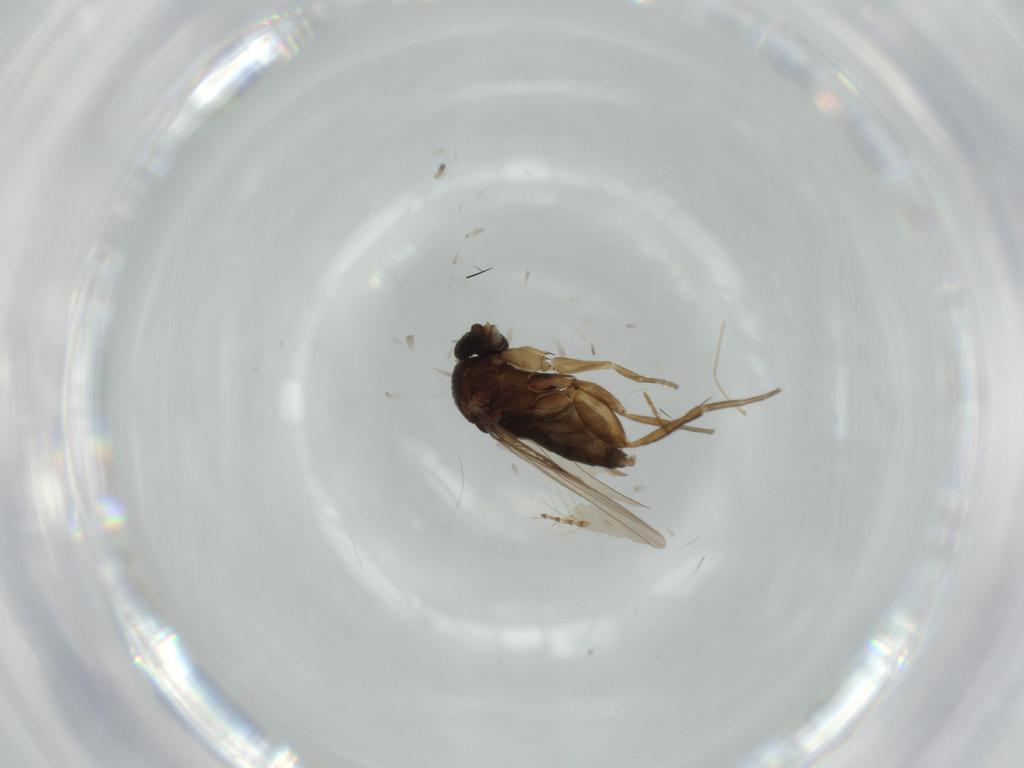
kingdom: Animalia
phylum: Arthropoda
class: Insecta
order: Diptera
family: Phoridae
